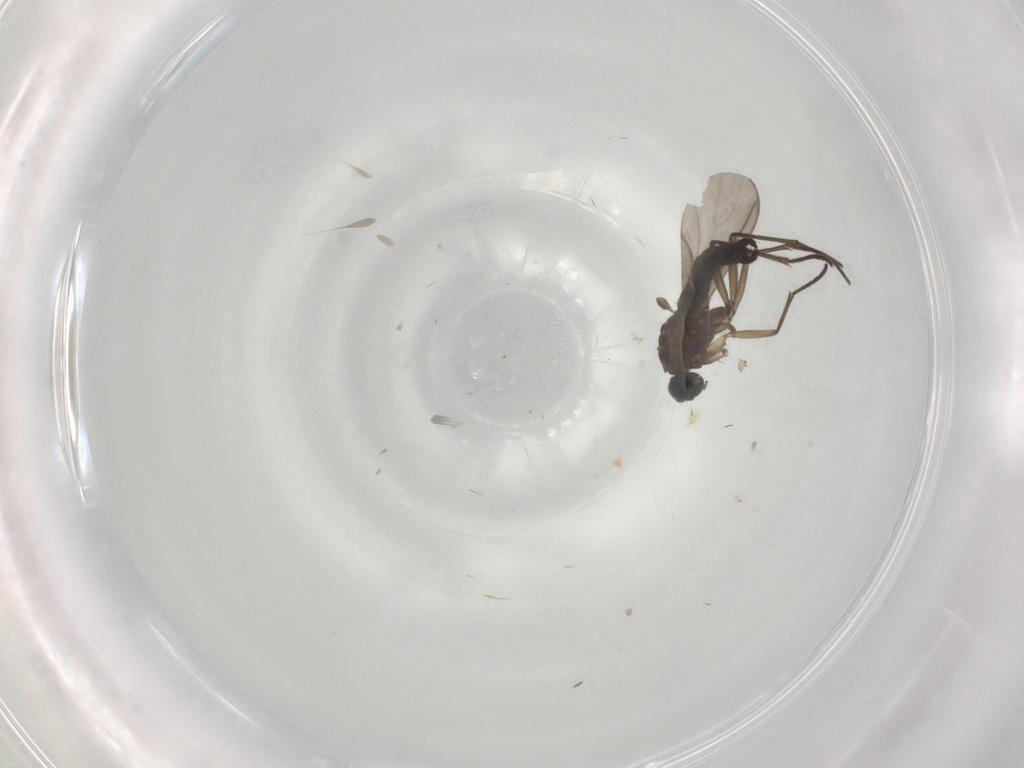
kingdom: Animalia
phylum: Arthropoda
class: Insecta
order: Diptera
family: Sciaridae
